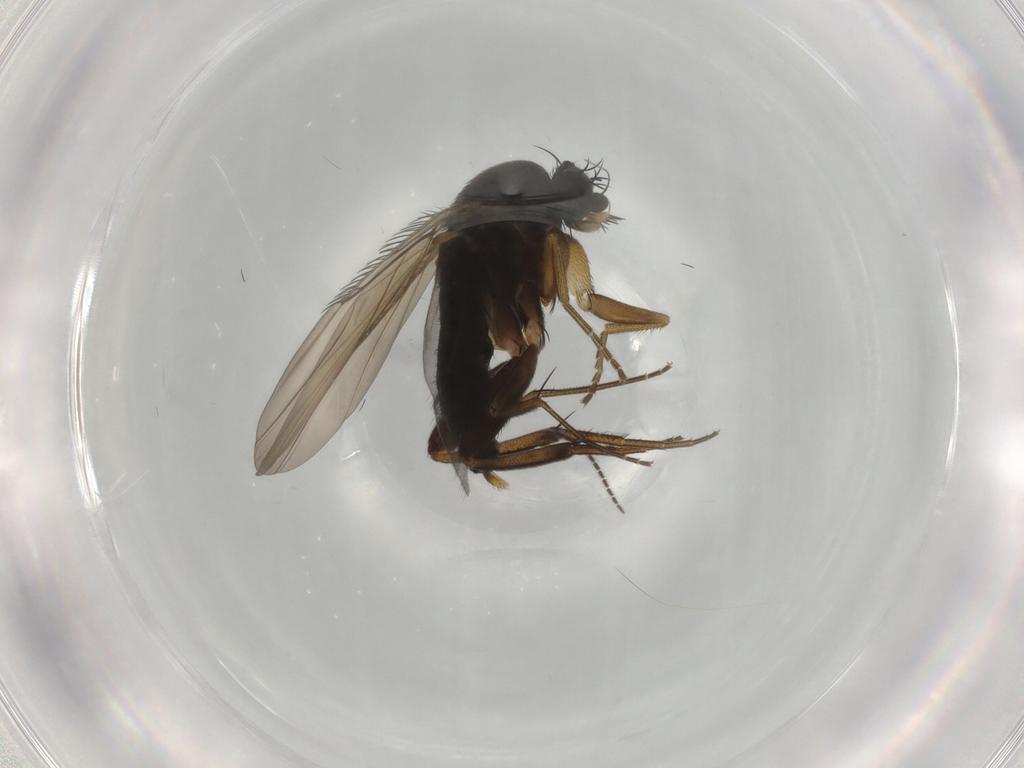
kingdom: Animalia
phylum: Arthropoda
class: Insecta
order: Diptera
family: Phoridae
